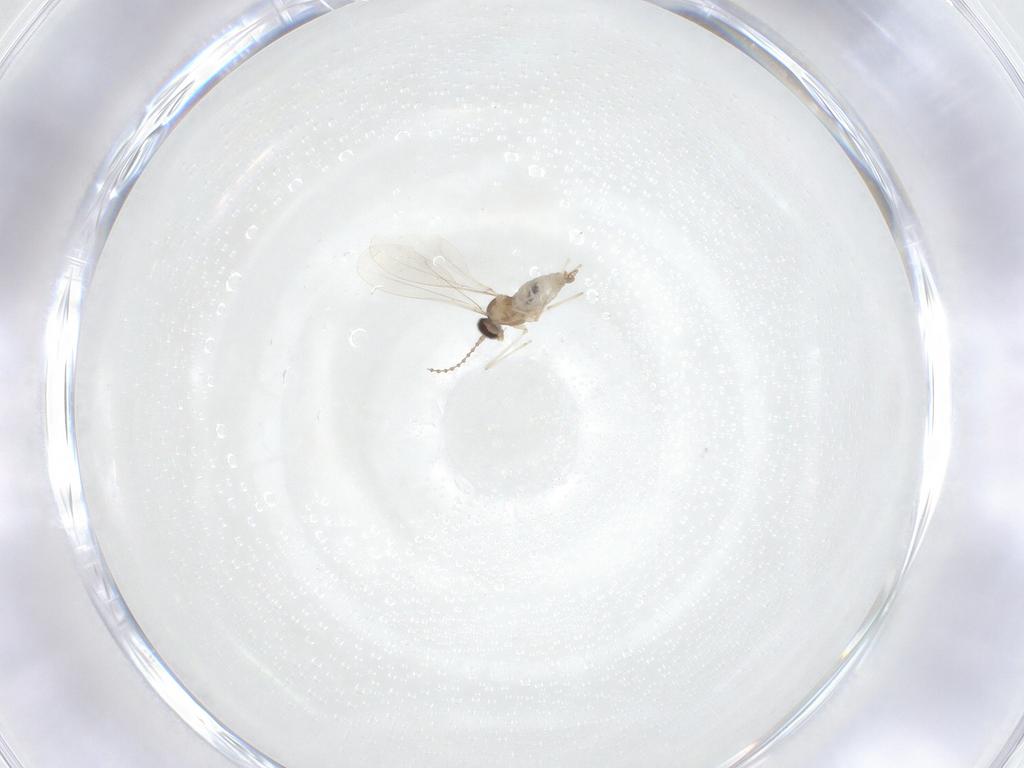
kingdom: Animalia
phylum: Arthropoda
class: Insecta
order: Diptera
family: Cecidomyiidae
